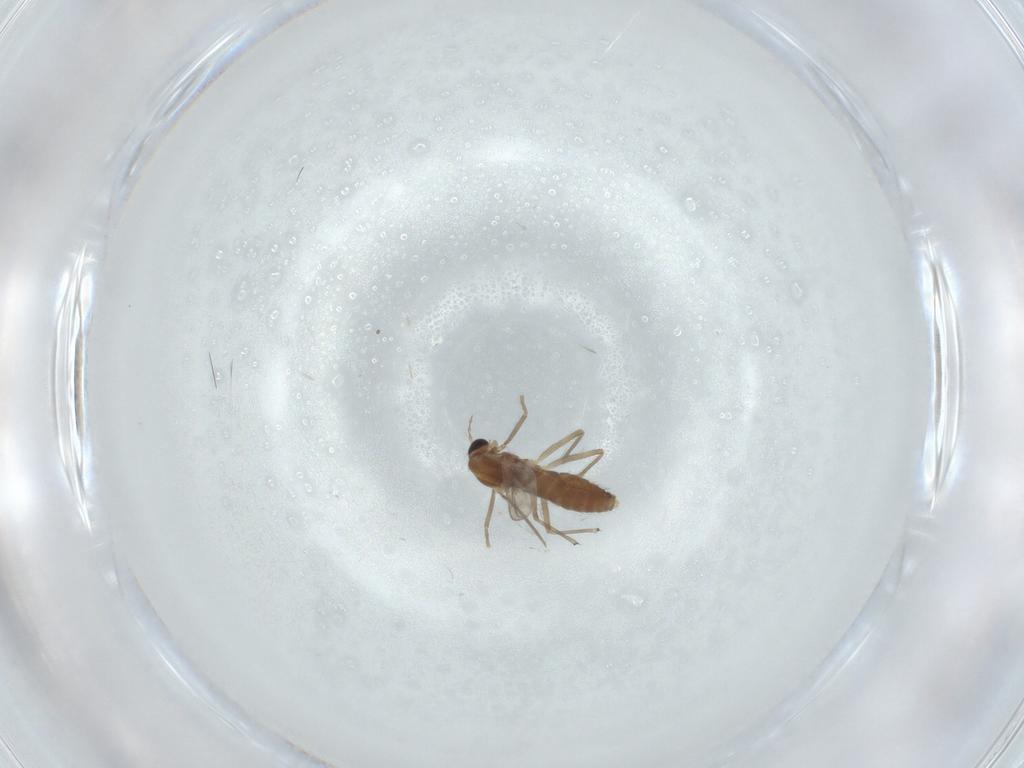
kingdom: Animalia
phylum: Arthropoda
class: Insecta
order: Diptera
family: Chironomidae
